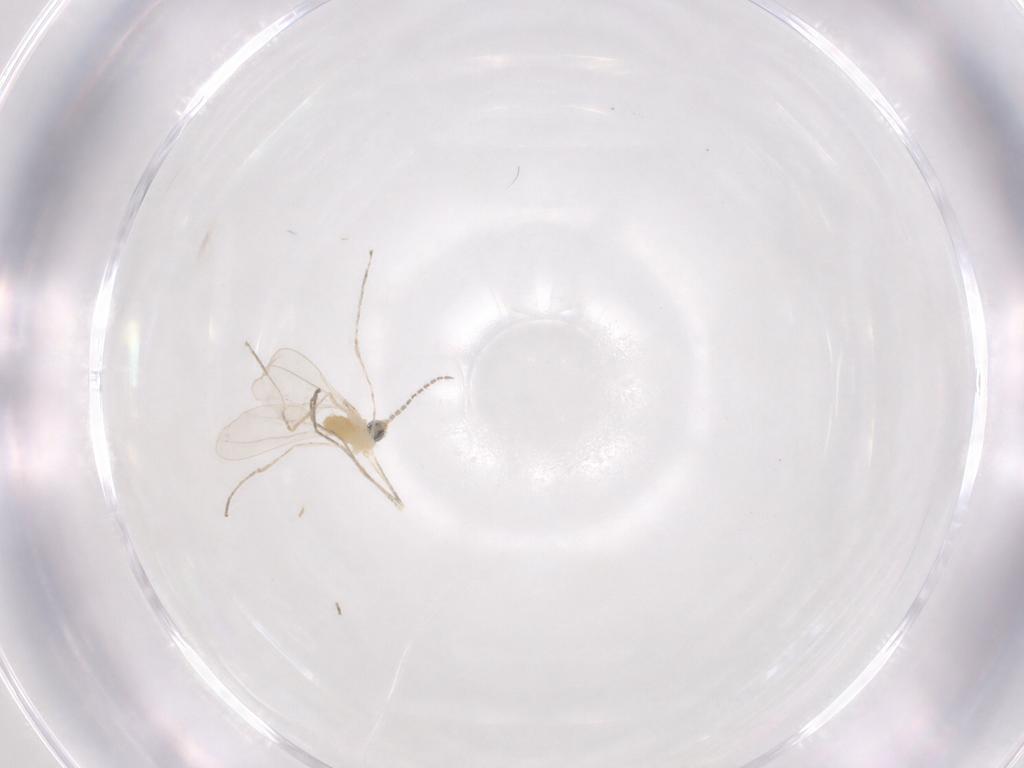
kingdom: Animalia
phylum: Arthropoda
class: Insecta
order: Diptera
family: Cecidomyiidae
